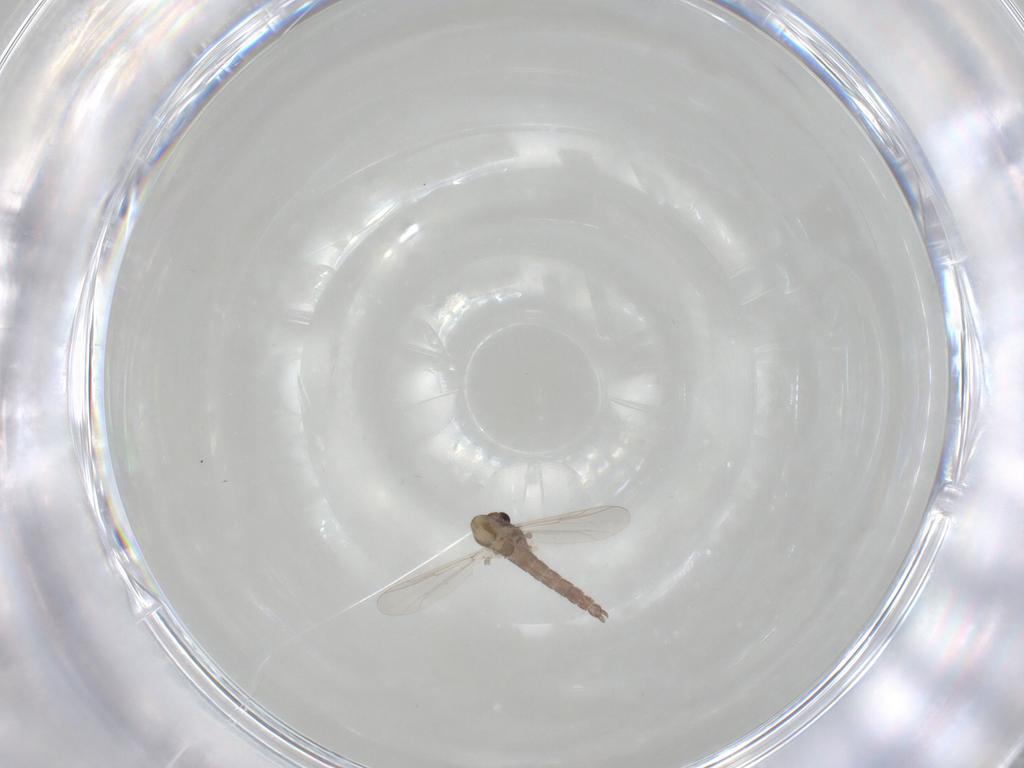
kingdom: Animalia
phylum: Arthropoda
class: Insecta
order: Diptera
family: Chironomidae
